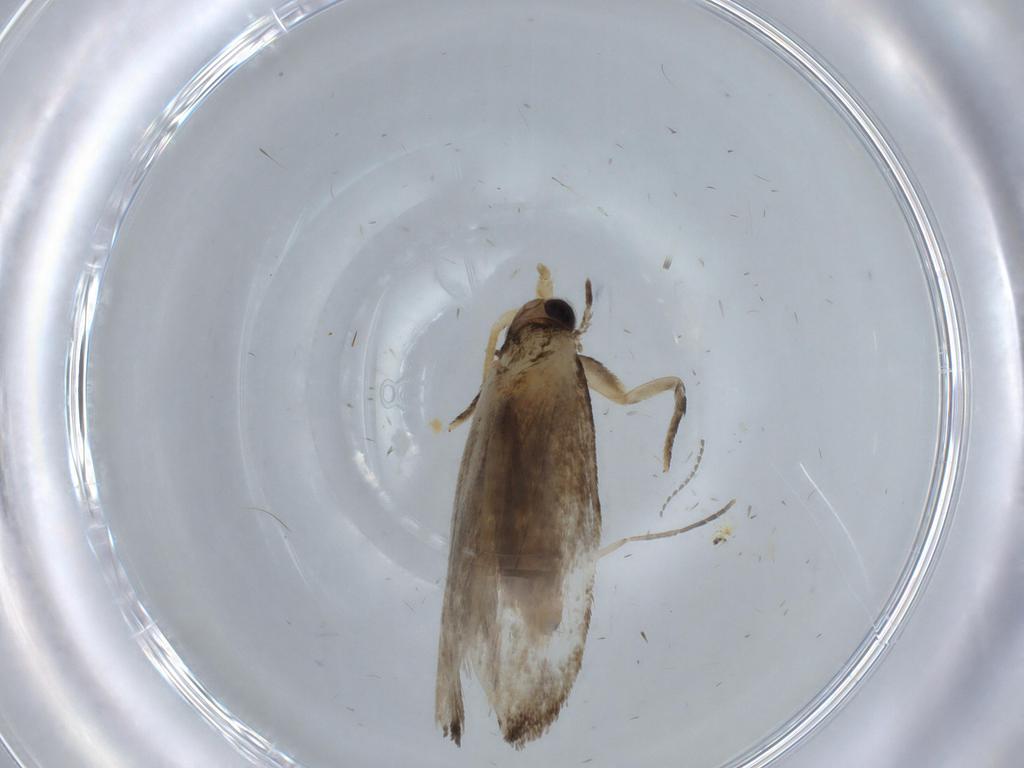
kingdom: Animalia
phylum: Arthropoda
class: Insecta
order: Lepidoptera
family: Tineidae
